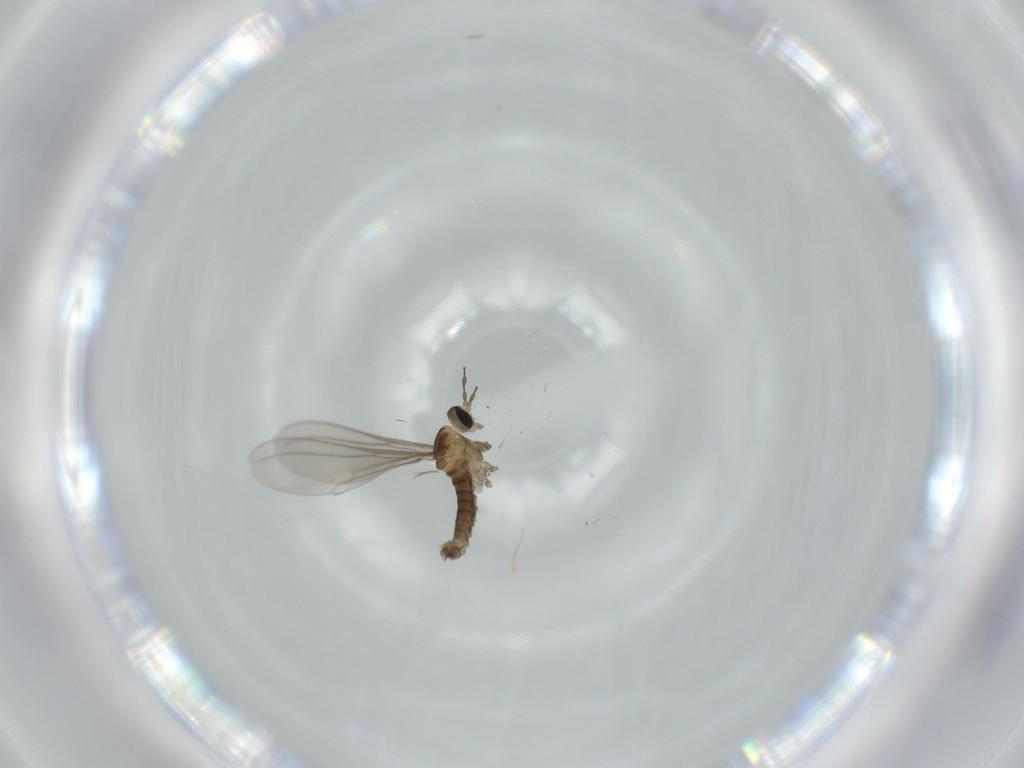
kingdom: Animalia
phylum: Arthropoda
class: Insecta
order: Diptera
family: Cecidomyiidae
